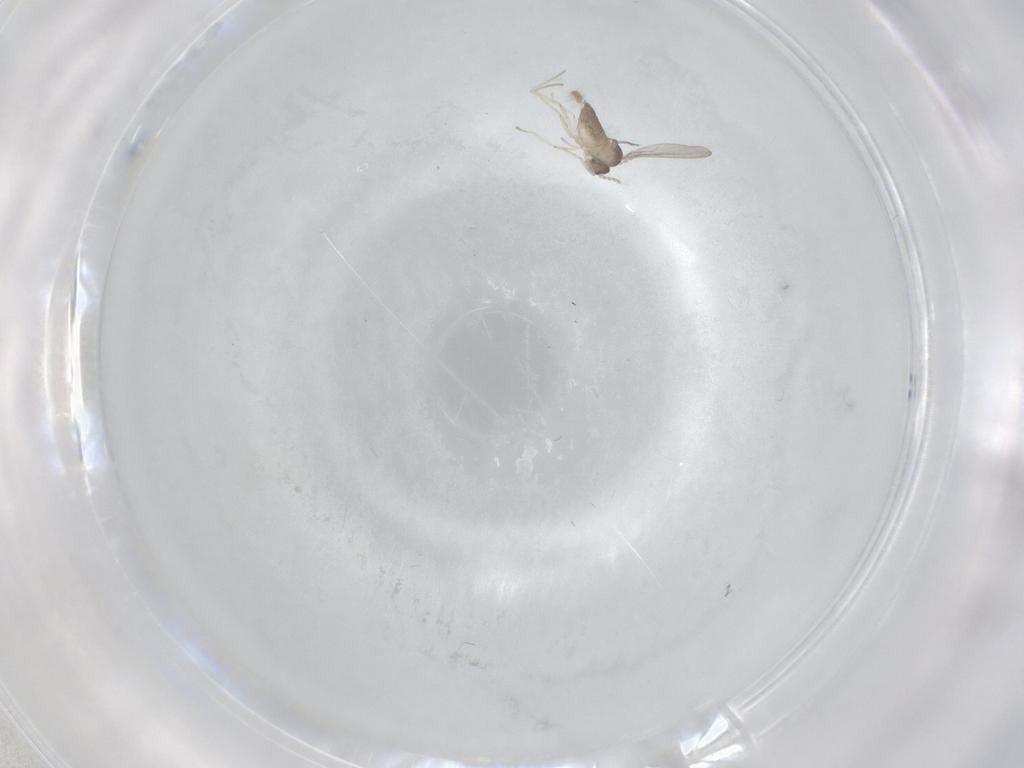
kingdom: Animalia
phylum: Arthropoda
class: Insecta
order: Diptera
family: Cecidomyiidae
